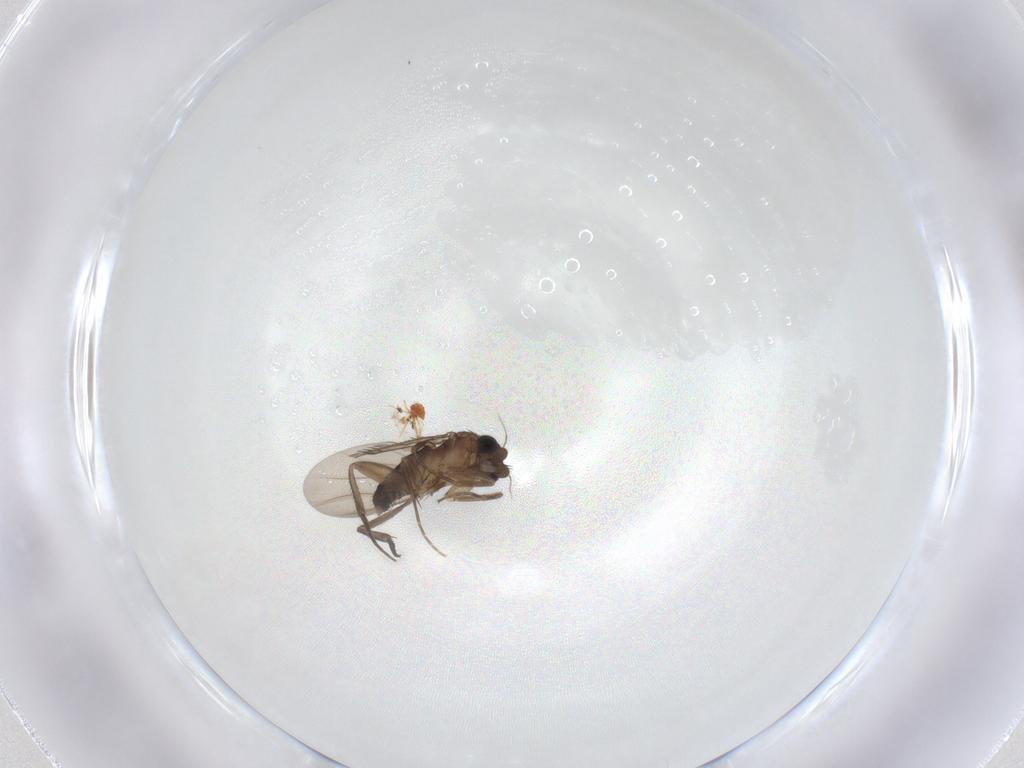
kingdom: Animalia
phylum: Arthropoda
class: Insecta
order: Diptera
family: Phoridae
